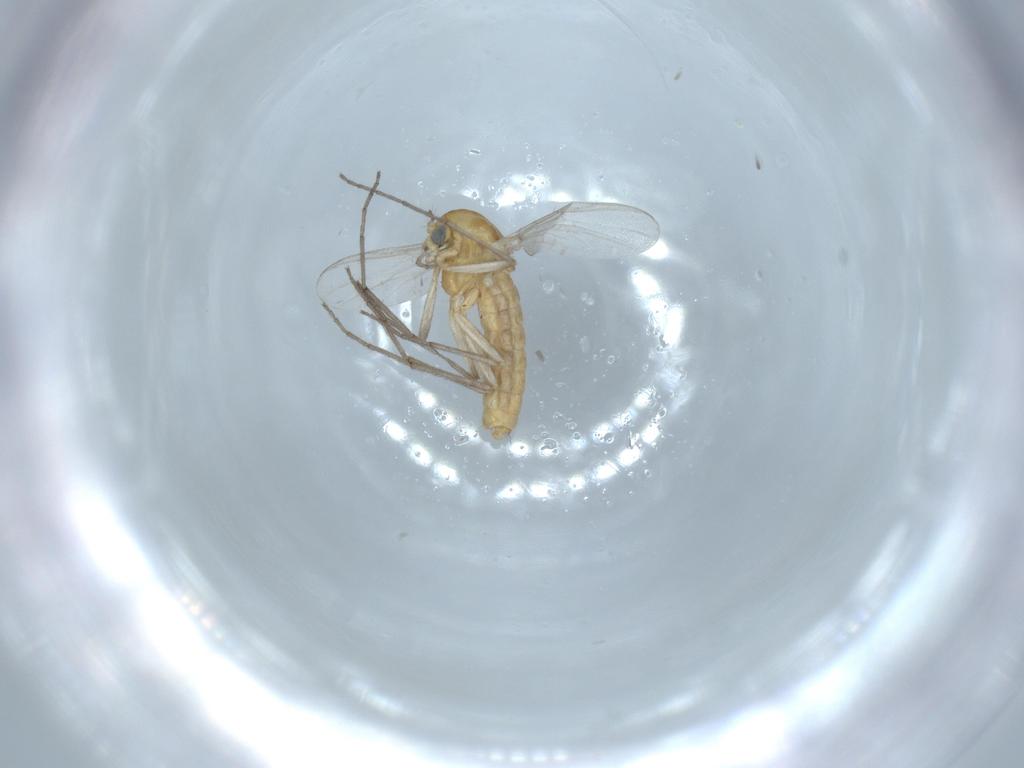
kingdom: Animalia
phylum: Arthropoda
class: Insecta
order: Diptera
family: Chironomidae
